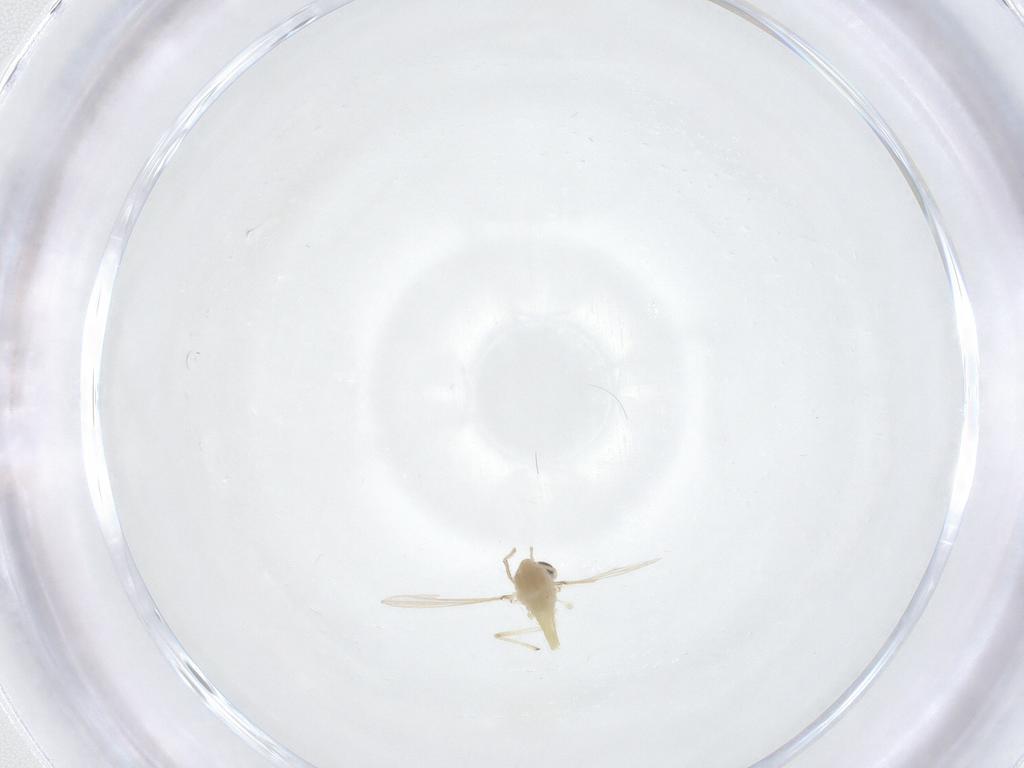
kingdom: Animalia
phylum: Arthropoda
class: Insecta
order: Diptera
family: Chironomidae
